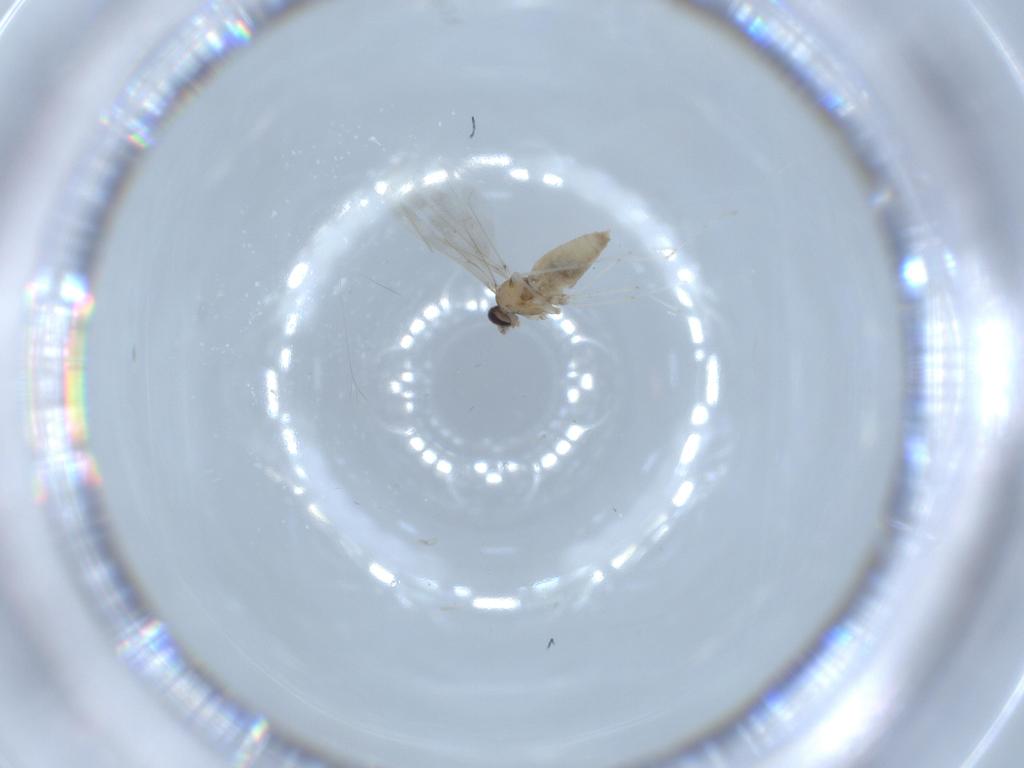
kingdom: Animalia
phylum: Arthropoda
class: Insecta
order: Diptera
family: Cecidomyiidae
